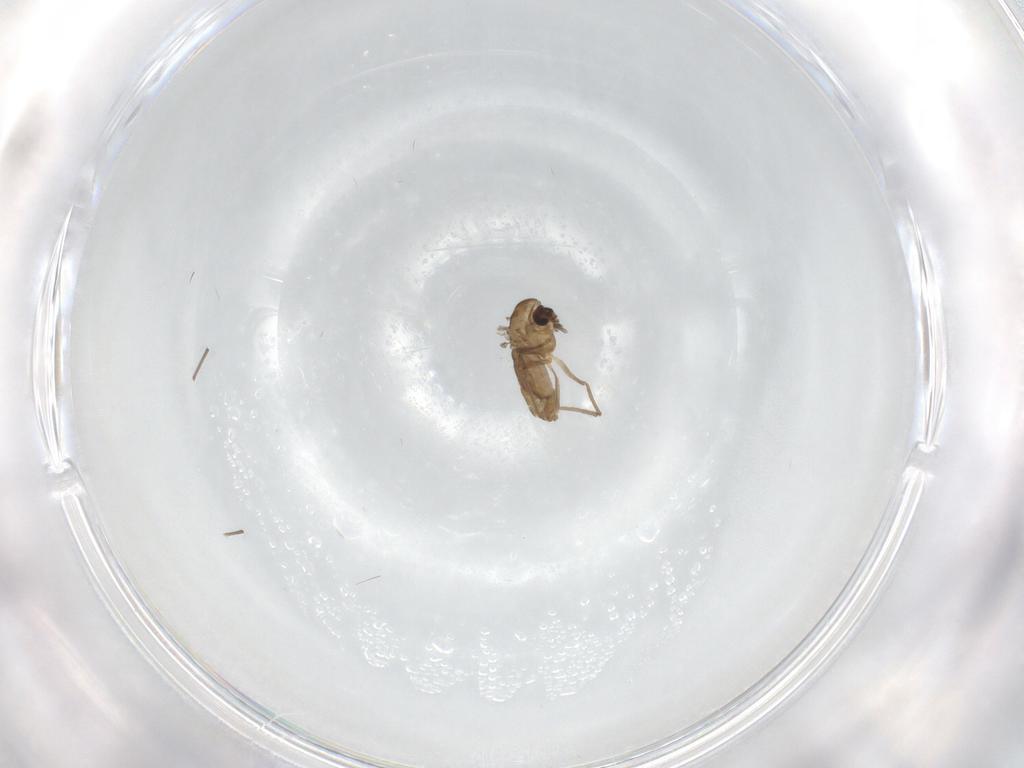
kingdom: Animalia
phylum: Arthropoda
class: Insecta
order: Diptera
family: Chironomidae
